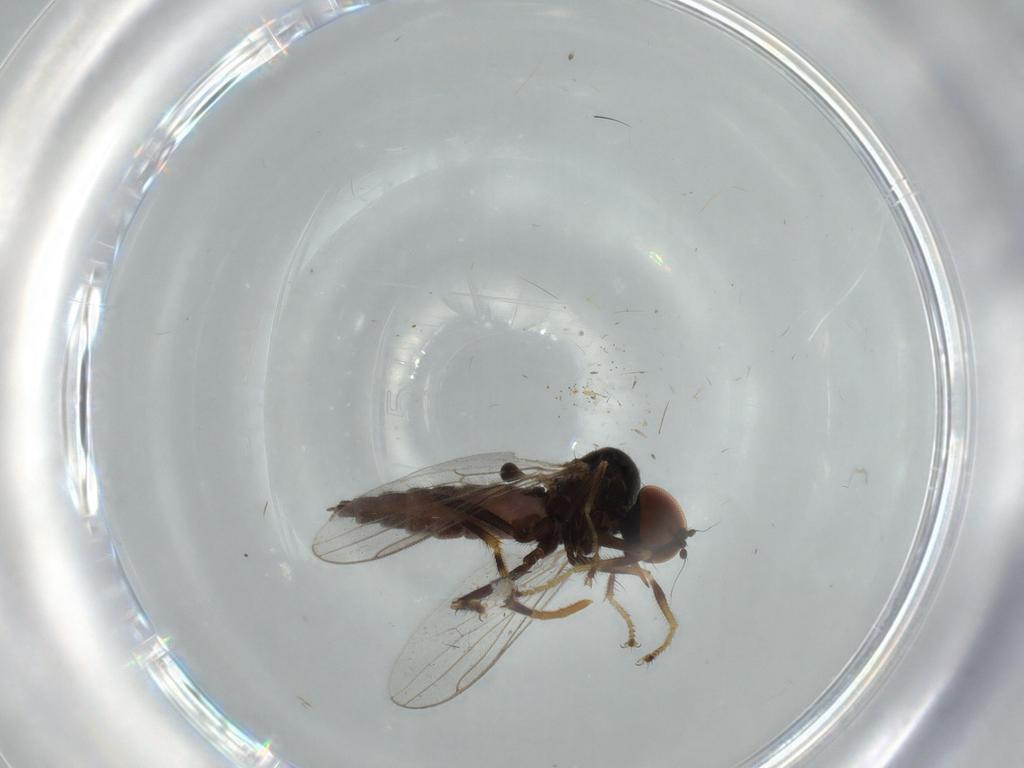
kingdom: Animalia
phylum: Arthropoda
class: Insecta
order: Diptera
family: Hybotidae
